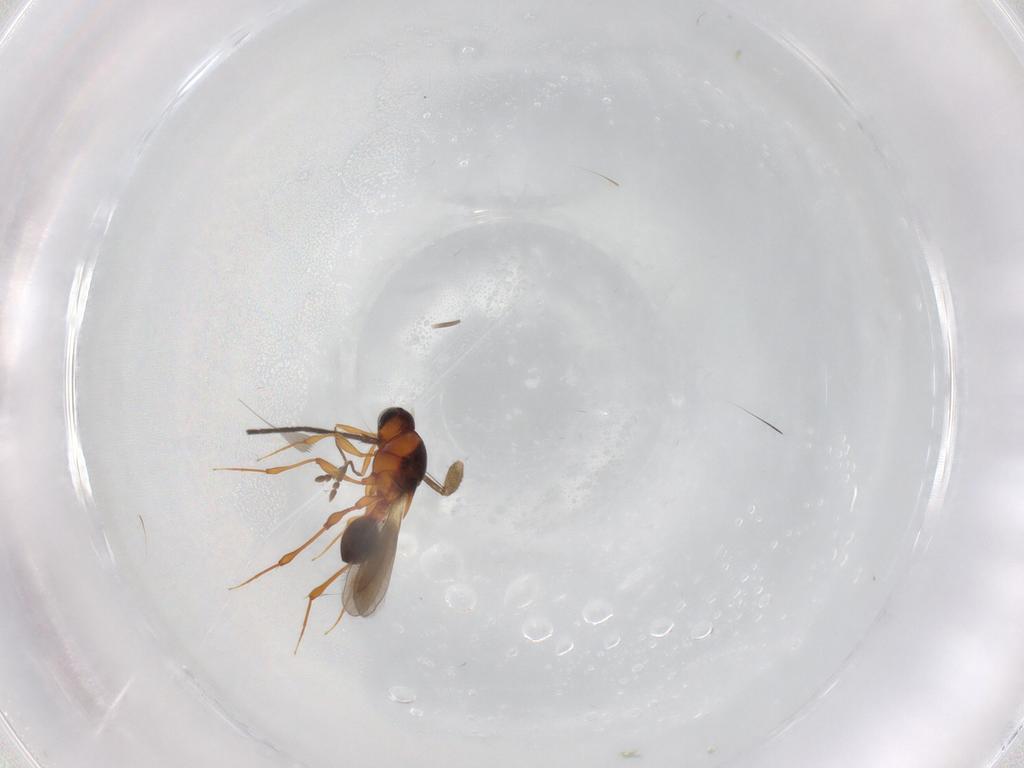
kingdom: Animalia
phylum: Arthropoda
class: Insecta
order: Hymenoptera
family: Platygastridae
